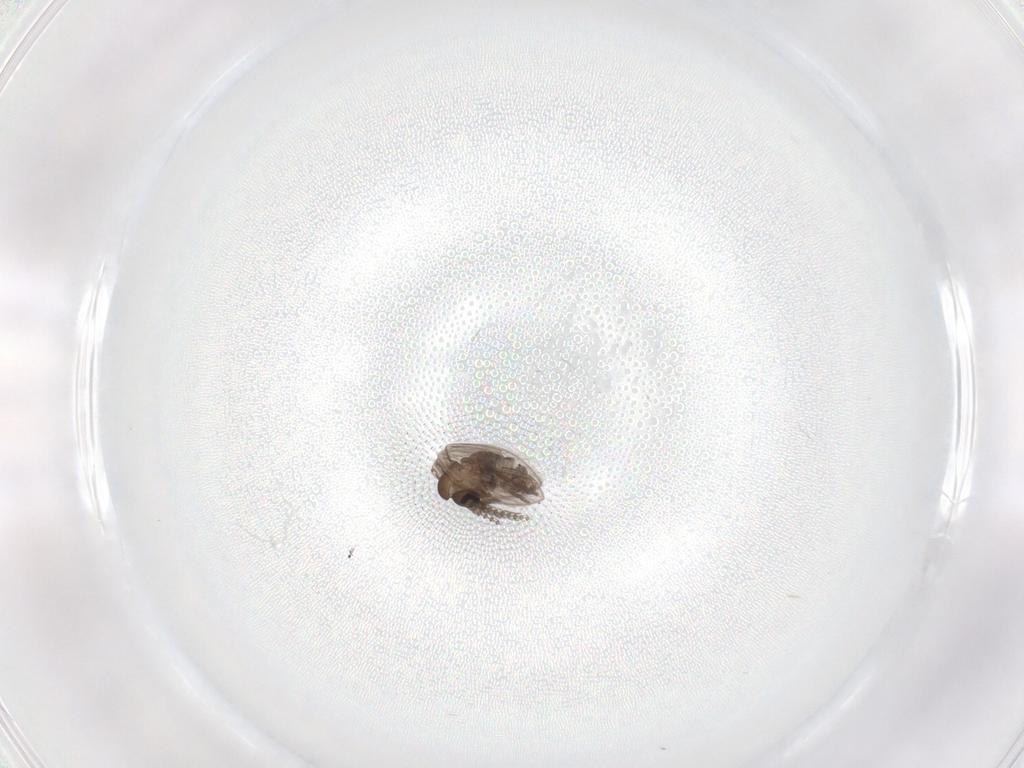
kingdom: Animalia
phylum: Arthropoda
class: Insecta
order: Diptera
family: Psychodidae
